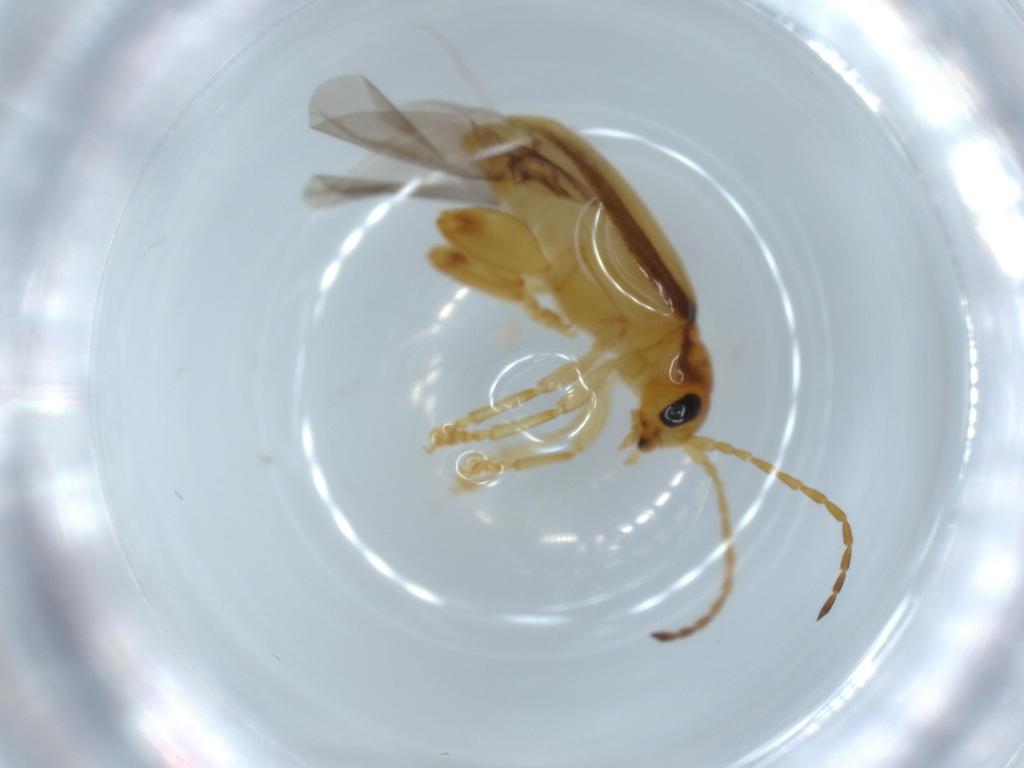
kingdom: Animalia
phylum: Arthropoda
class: Insecta
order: Coleoptera
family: Chrysomelidae
